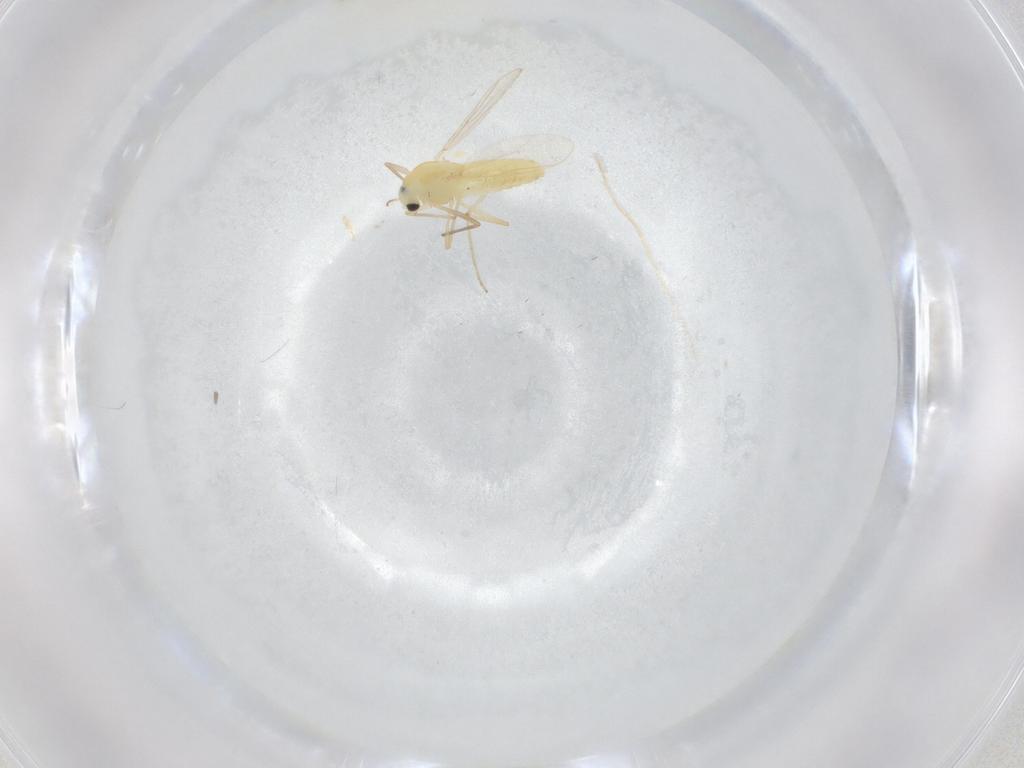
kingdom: Animalia
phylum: Arthropoda
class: Insecta
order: Diptera
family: Chironomidae
